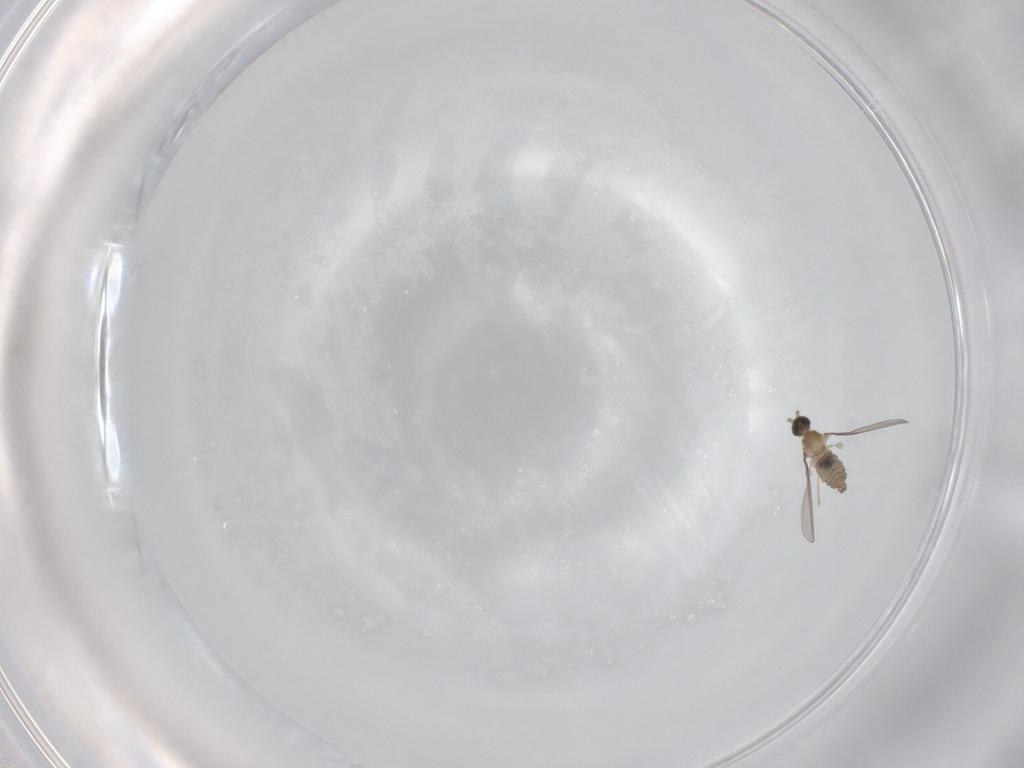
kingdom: Animalia
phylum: Arthropoda
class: Insecta
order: Diptera
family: Cecidomyiidae
